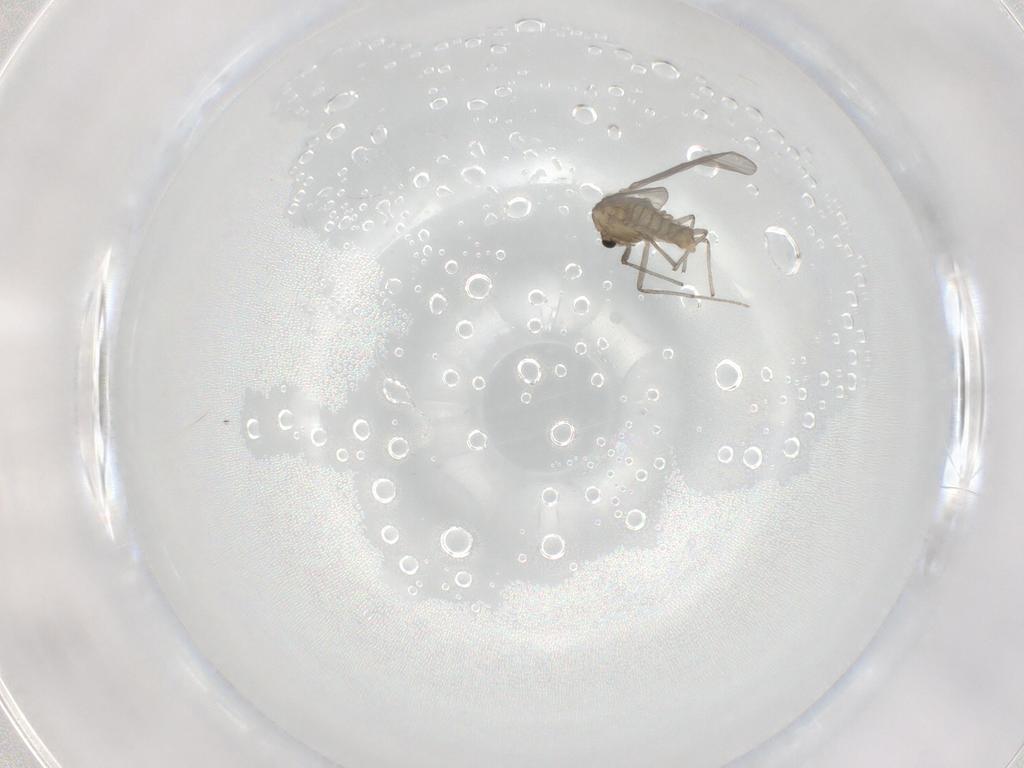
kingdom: Animalia
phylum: Arthropoda
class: Insecta
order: Diptera
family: Chironomidae
